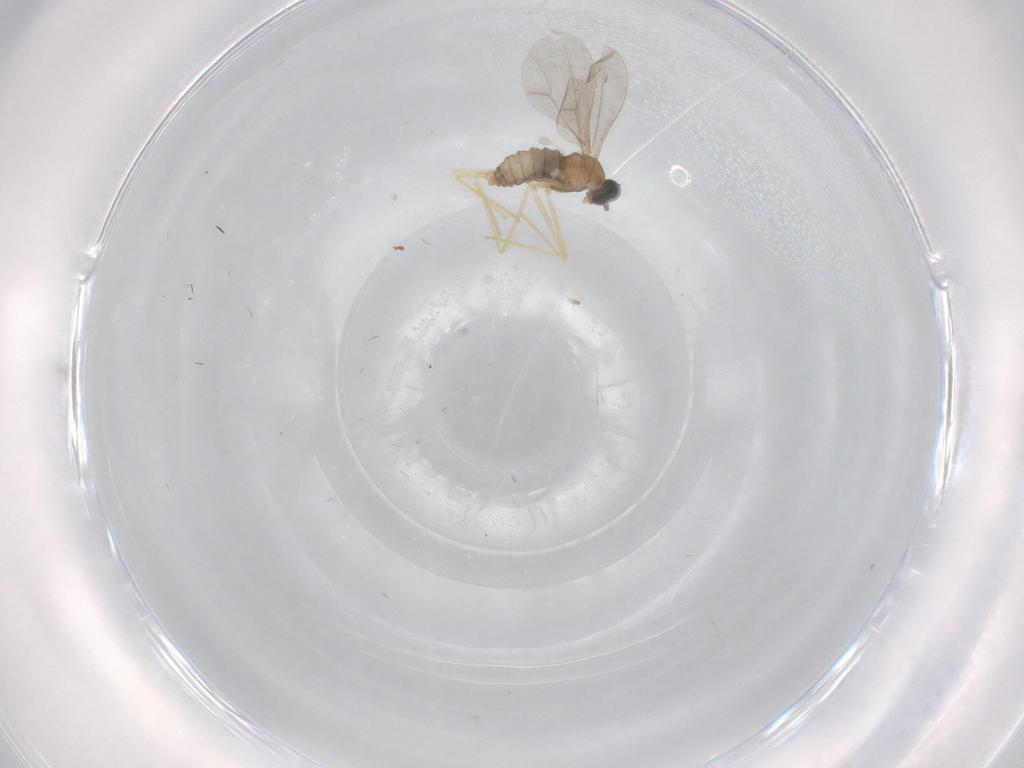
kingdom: Animalia
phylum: Arthropoda
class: Insecta
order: Diptera
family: Cecidomyiidae
